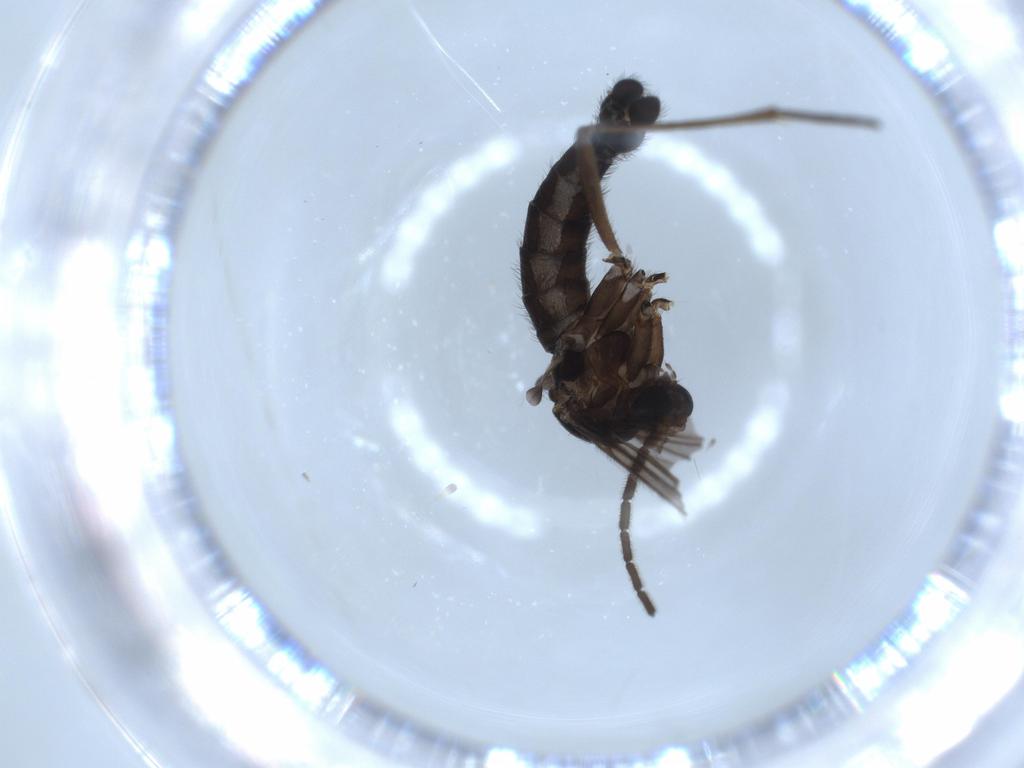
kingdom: Animalia
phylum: Arthropoda
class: Insecta
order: Diptera
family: Sciaridae
